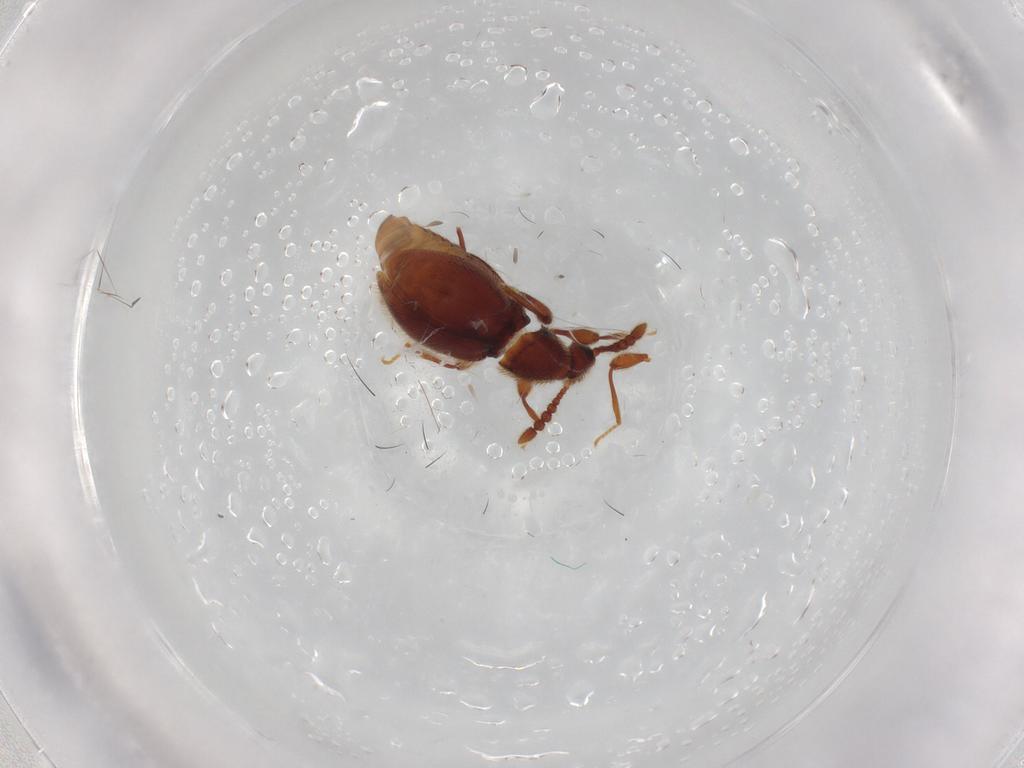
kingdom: Animalia
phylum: Arthropoda
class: Insecta
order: Coleoptera
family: Staphylinidae
